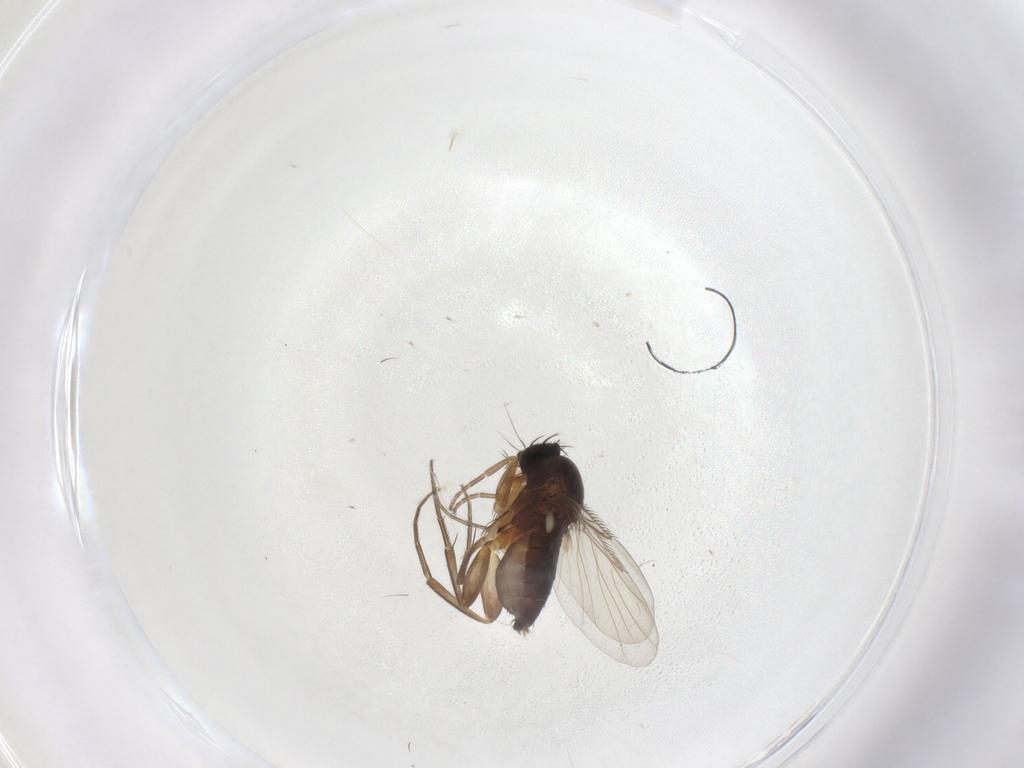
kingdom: Animalia
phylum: Arthropoda
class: Insecta
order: Diptera
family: Phoridae
